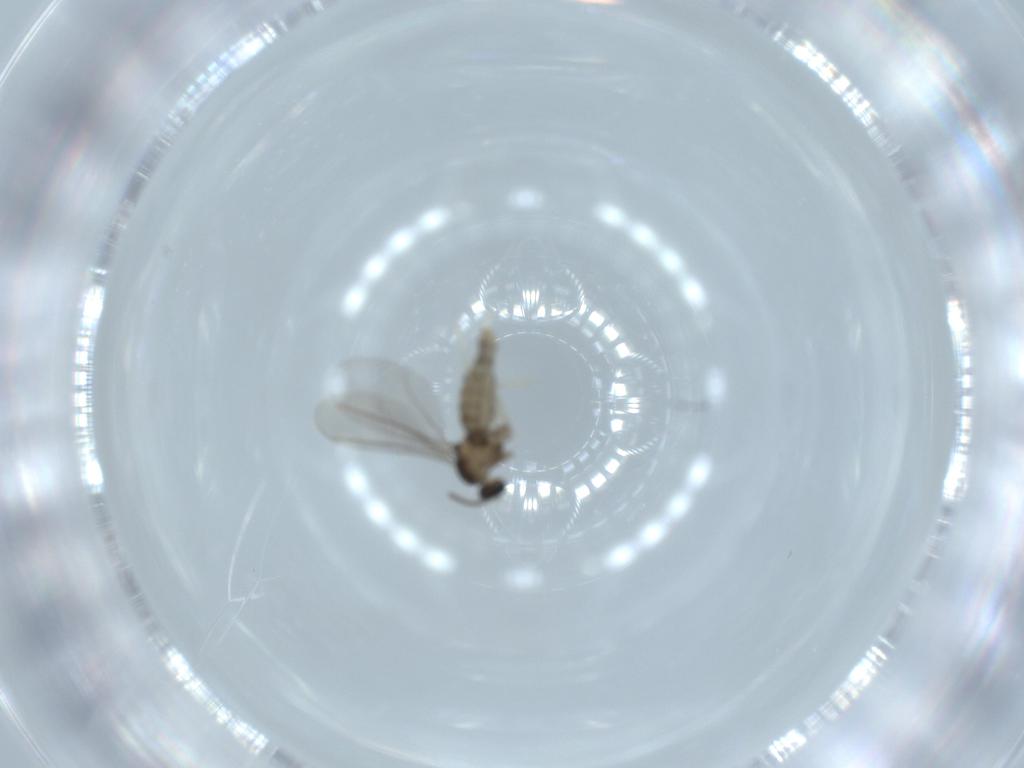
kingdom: Animalia
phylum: Arthropoda
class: Insecta
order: Diptera
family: Cecidomyiidae
